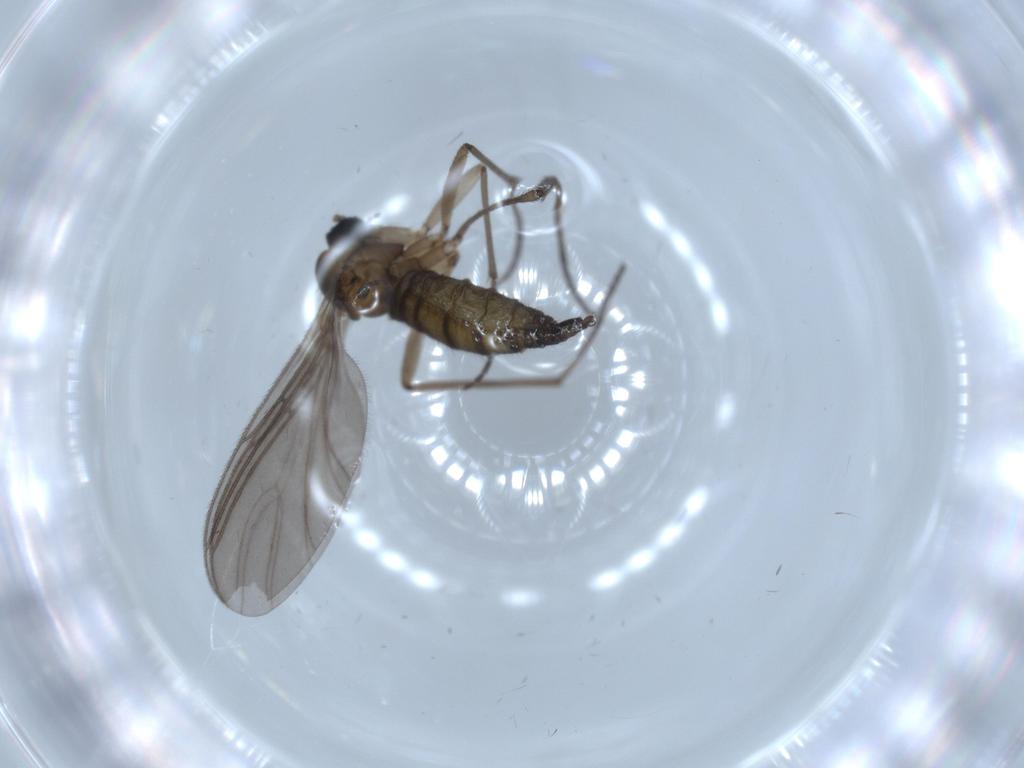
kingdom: Animalia
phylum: Arthropoda
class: Insecta
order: Diptera
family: Sciaridae
